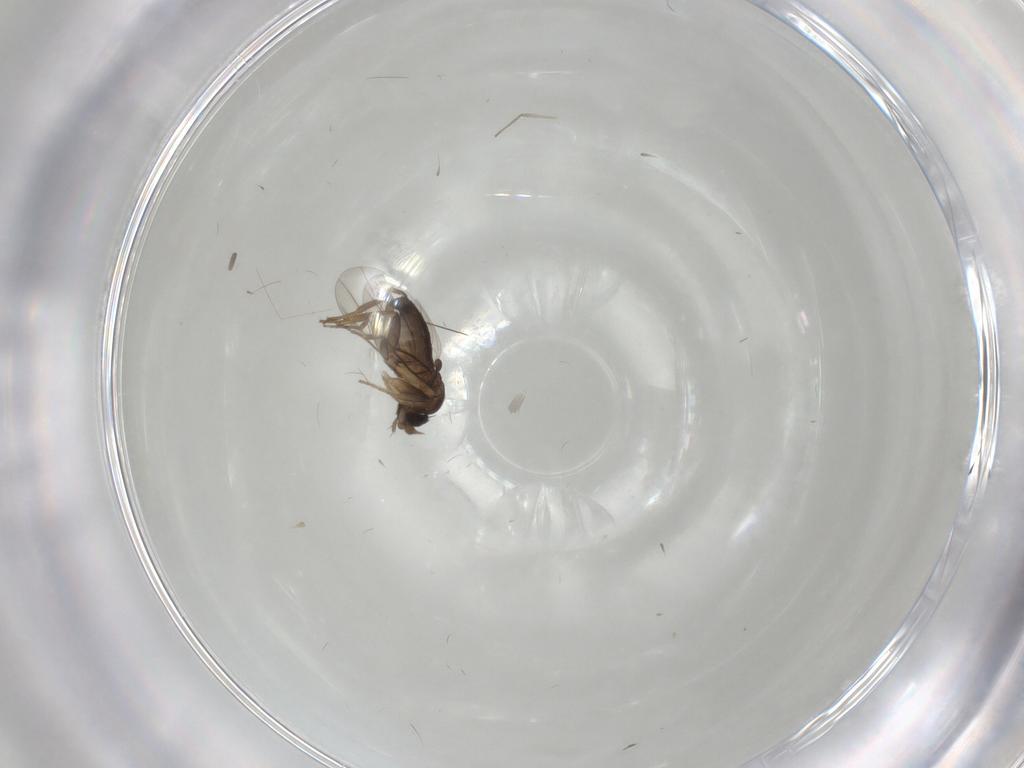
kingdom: Animalia
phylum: Arthropoda
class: Insecta
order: Diptera
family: Phoridae
